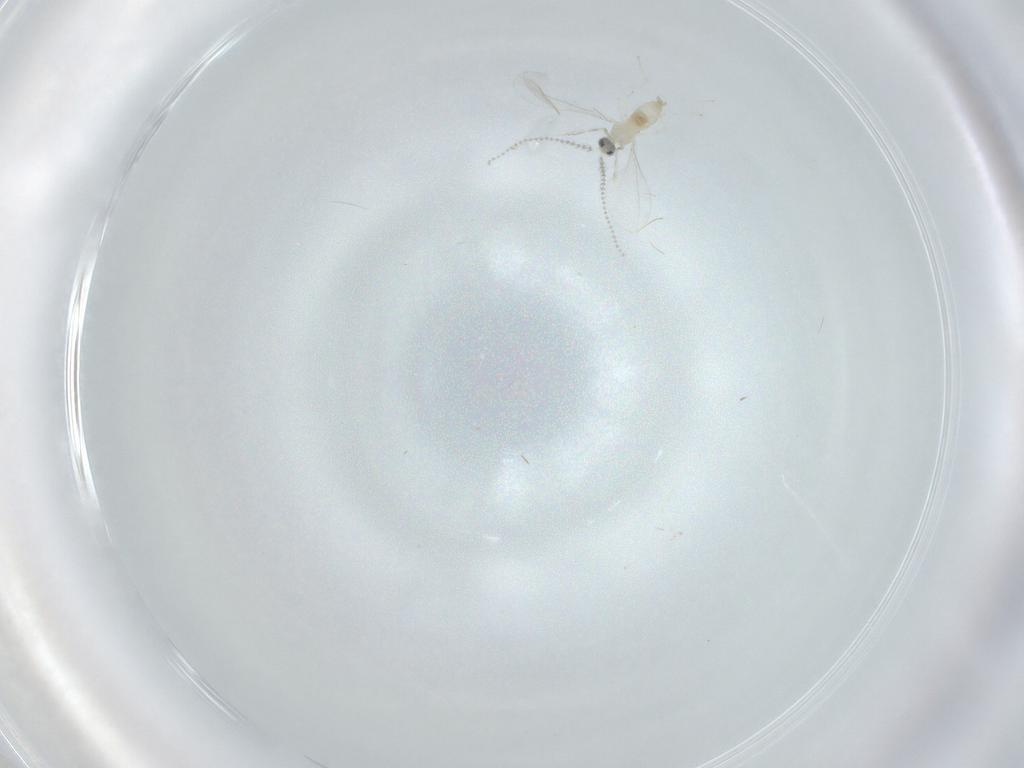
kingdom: Animalia
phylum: Arthropoda
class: Insecta
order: Diptera
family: Cecidomyiidae
